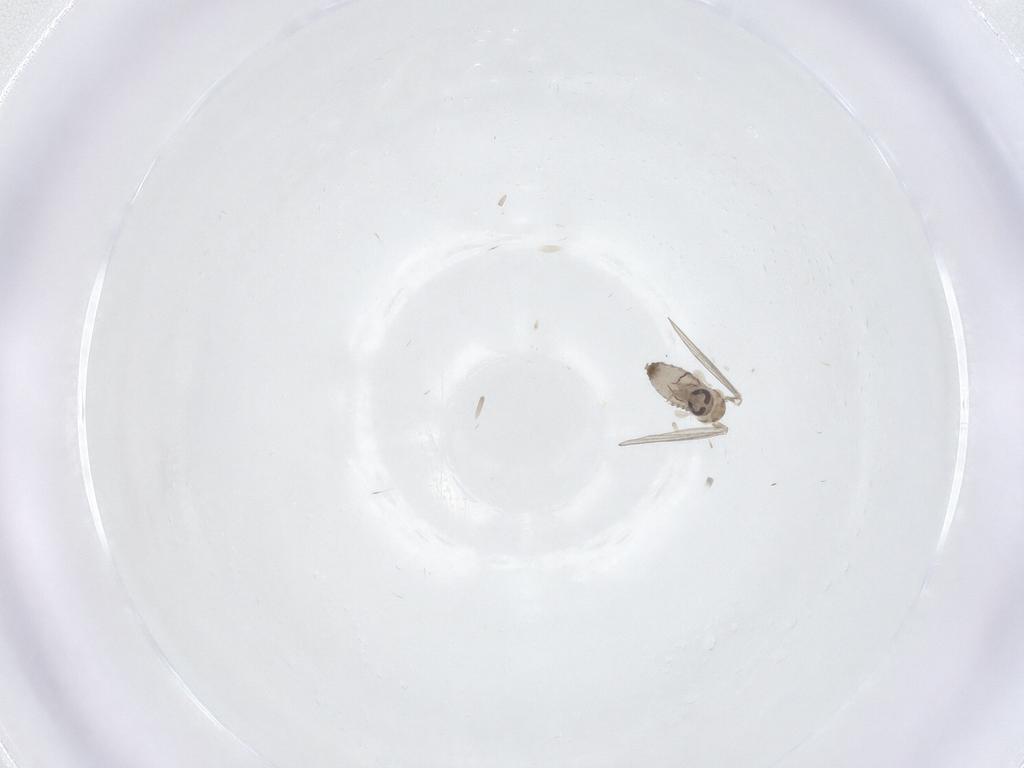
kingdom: Animalia
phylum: Arthropoda
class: Insecta
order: Diptera
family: Psychodidae
